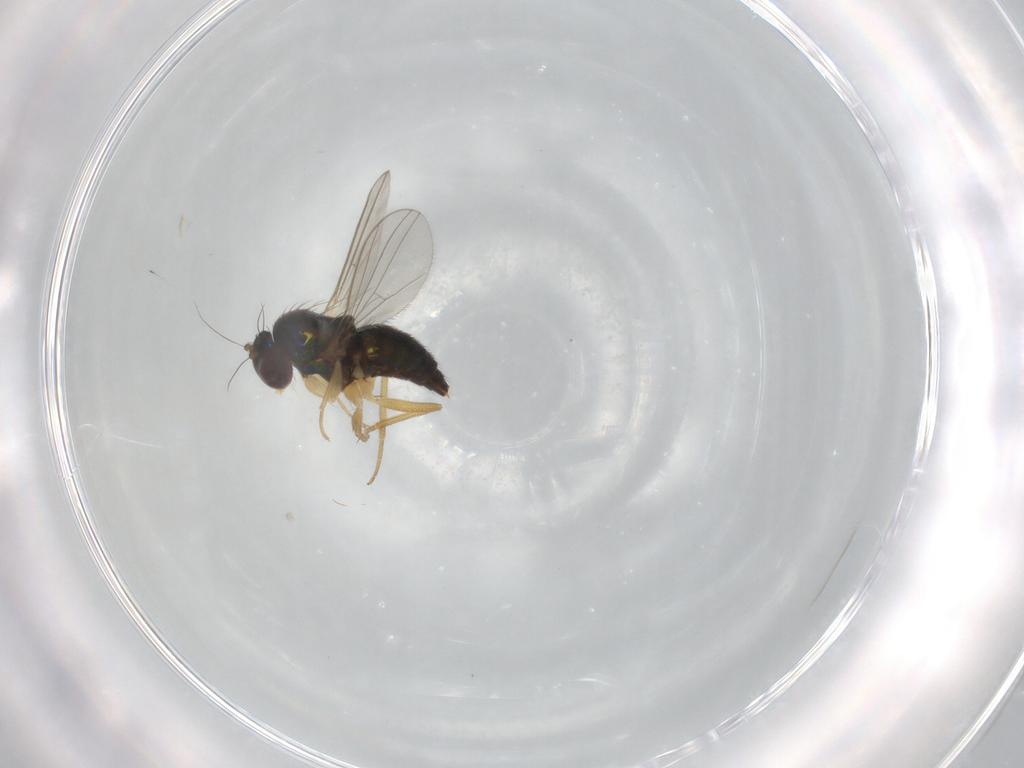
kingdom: Animalia
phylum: Arthropoda
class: Insecta
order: Diptera
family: Dolichopodidae
